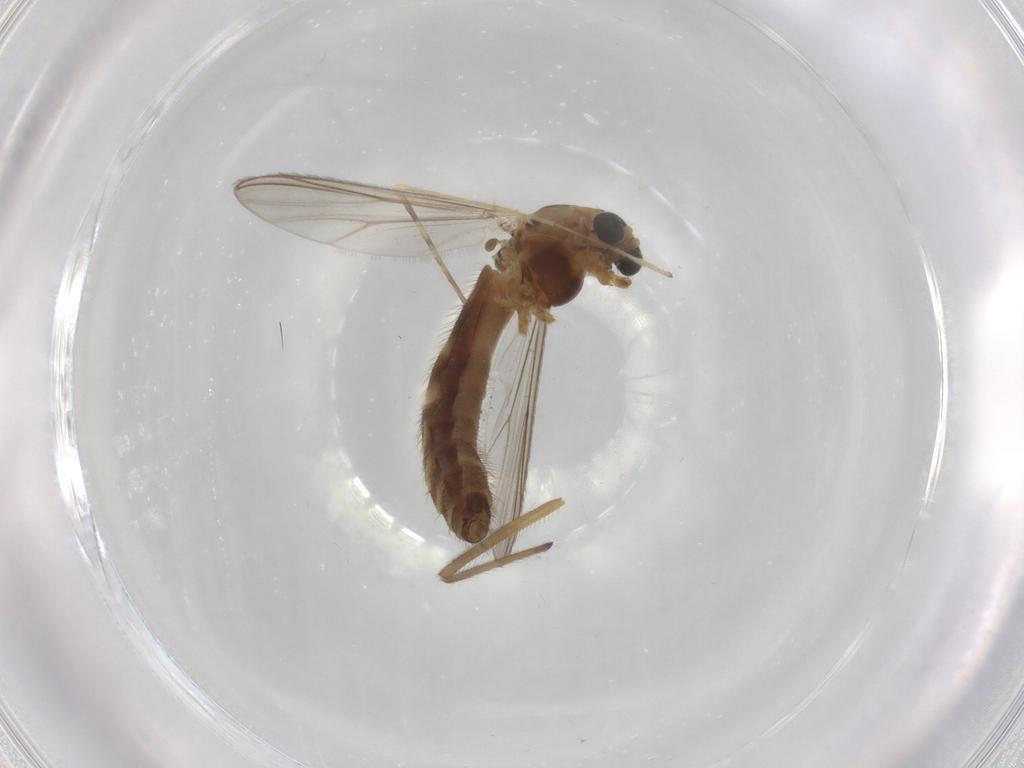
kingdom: Animalia
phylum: Arthropoda
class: Insecta
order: Diptera
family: Chironomidae
